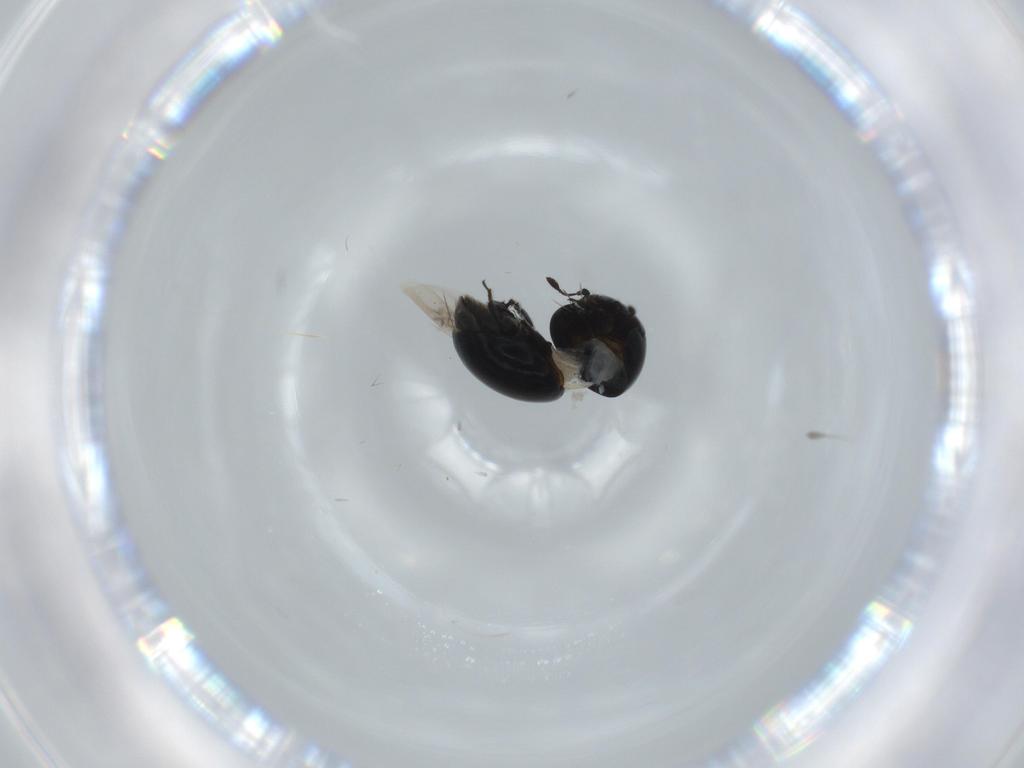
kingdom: Animalia
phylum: Arthropoda
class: Insecta
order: Coleoptera
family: Cybocephalidae
